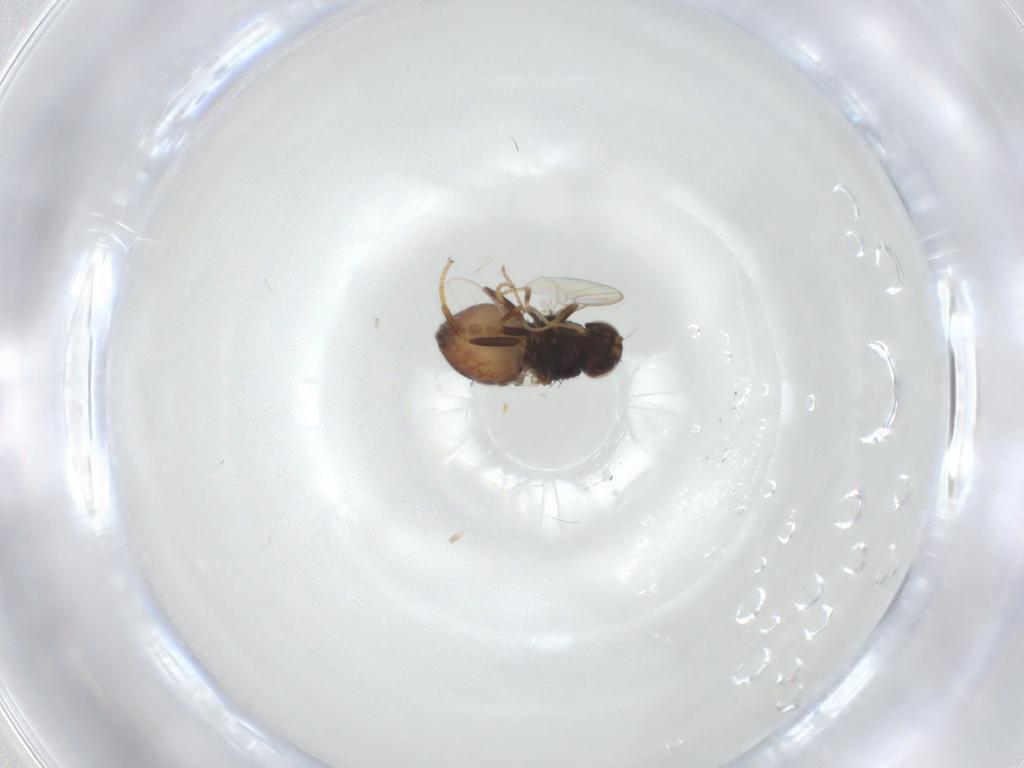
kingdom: Animalia
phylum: Arthropoda
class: Insecta
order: Diptera
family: Chloropidae
